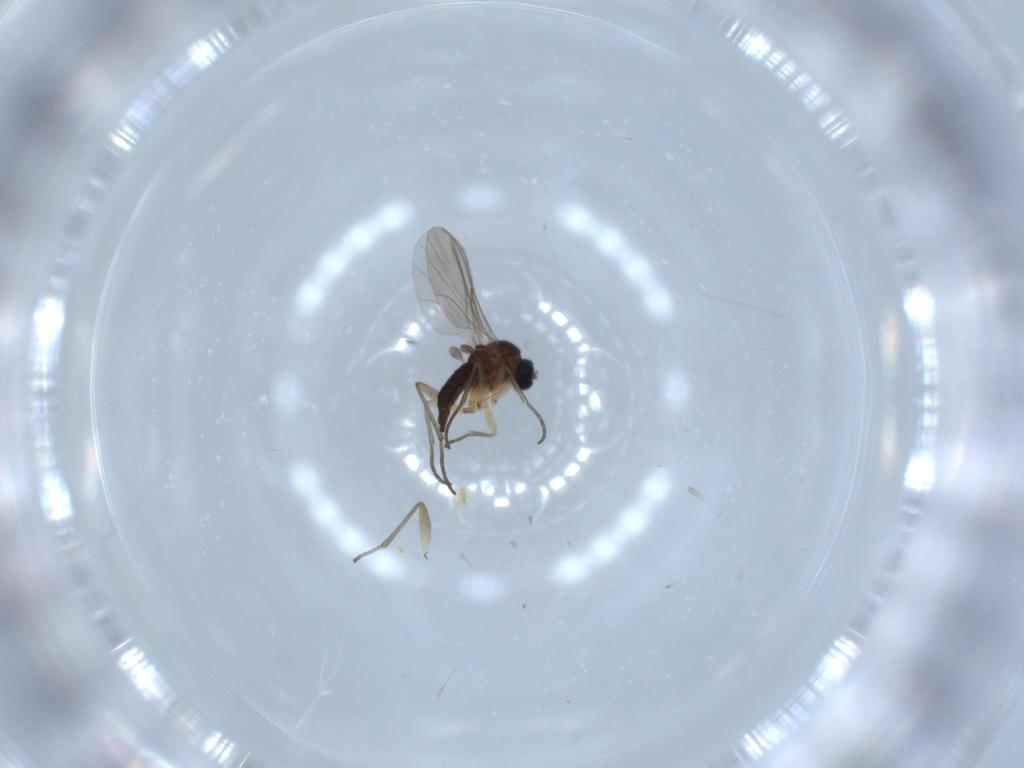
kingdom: Animalia
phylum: Arthropoda
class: Insecta
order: Diptera
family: Sciaridae
